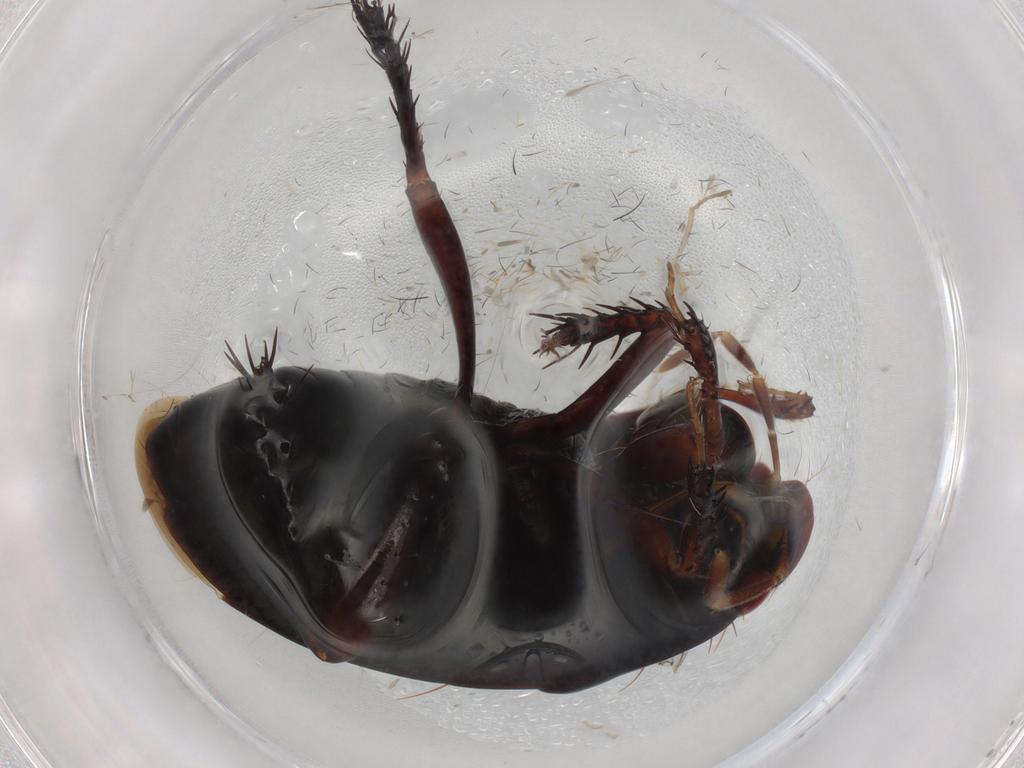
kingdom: Animalia
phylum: Arthropoda
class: Insecta
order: Hemiptera
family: Cydnidae
